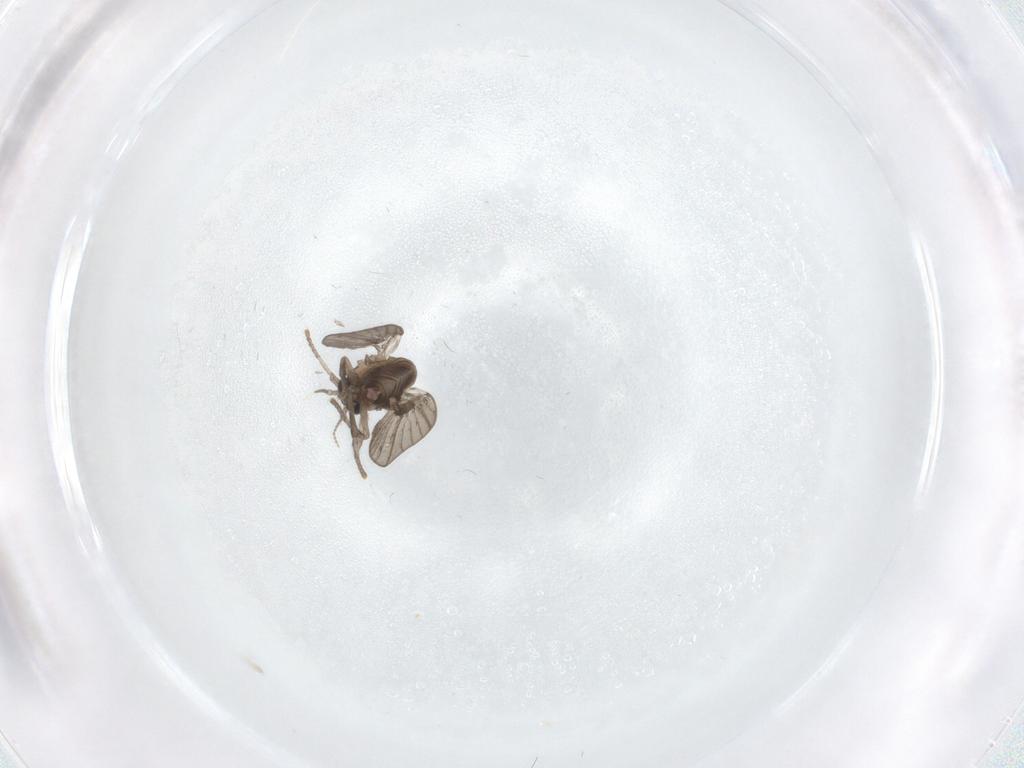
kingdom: Animalia
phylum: Arthropoda
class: Insecta
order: Diptera
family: Psychodidae
